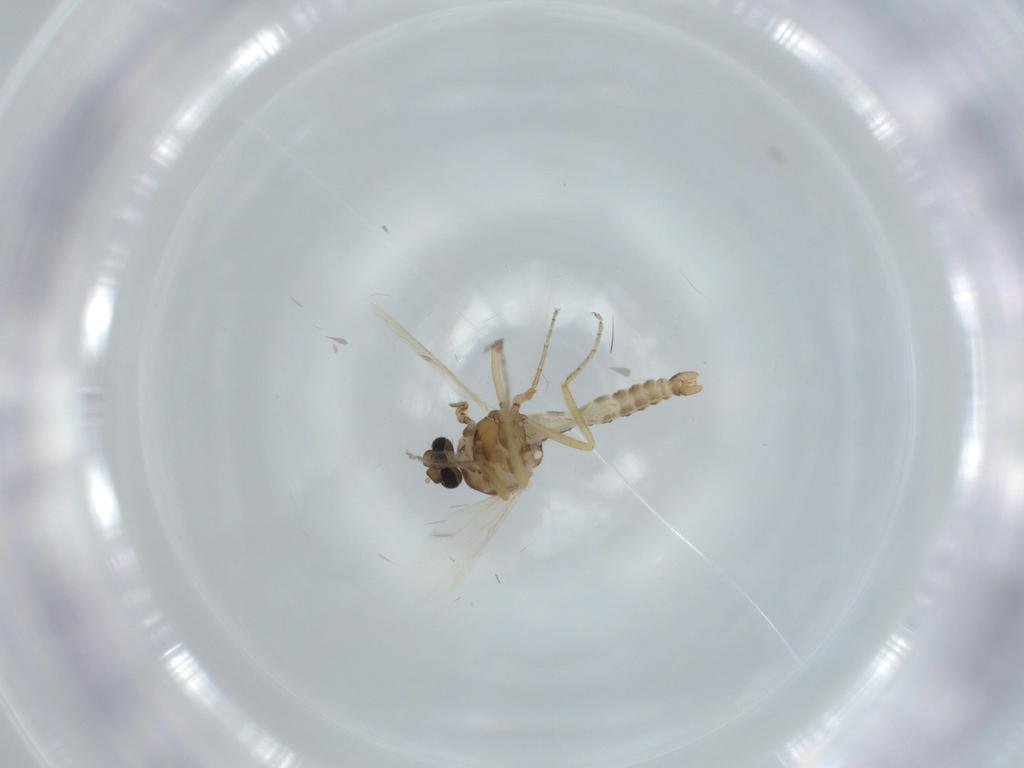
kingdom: Animalia
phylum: Arthropoda
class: Insecta
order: Diptera
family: Ceratopogonidae
